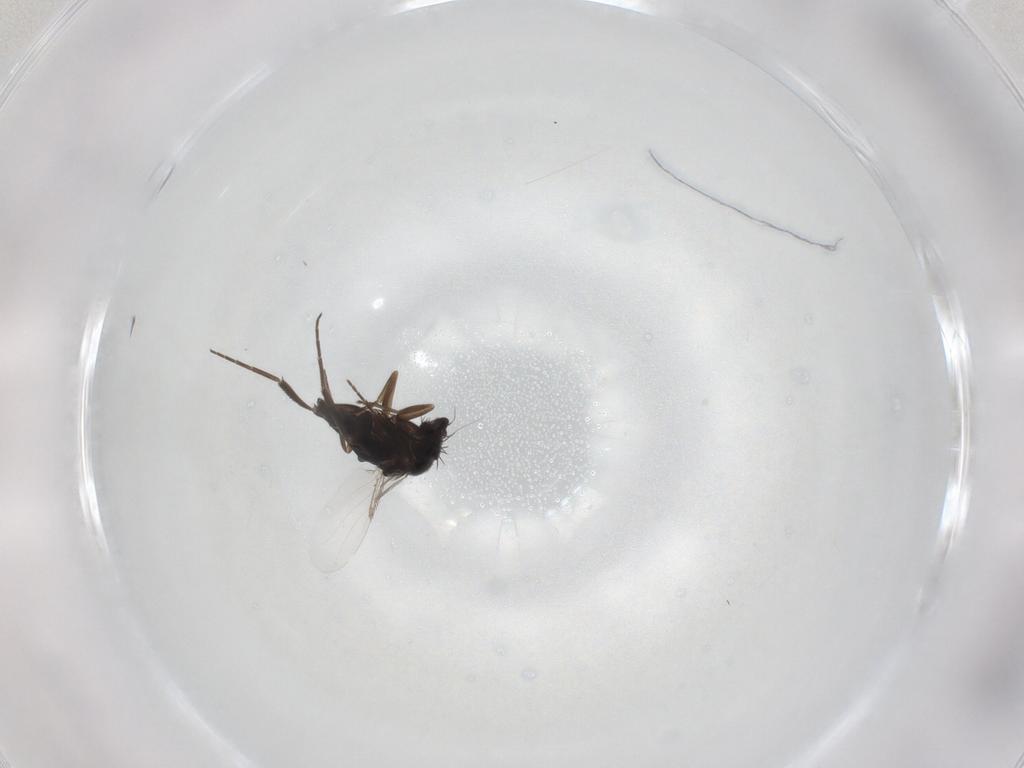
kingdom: Animalia
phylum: Arthropoda
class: Insecta
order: Diptera
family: Phoridae
